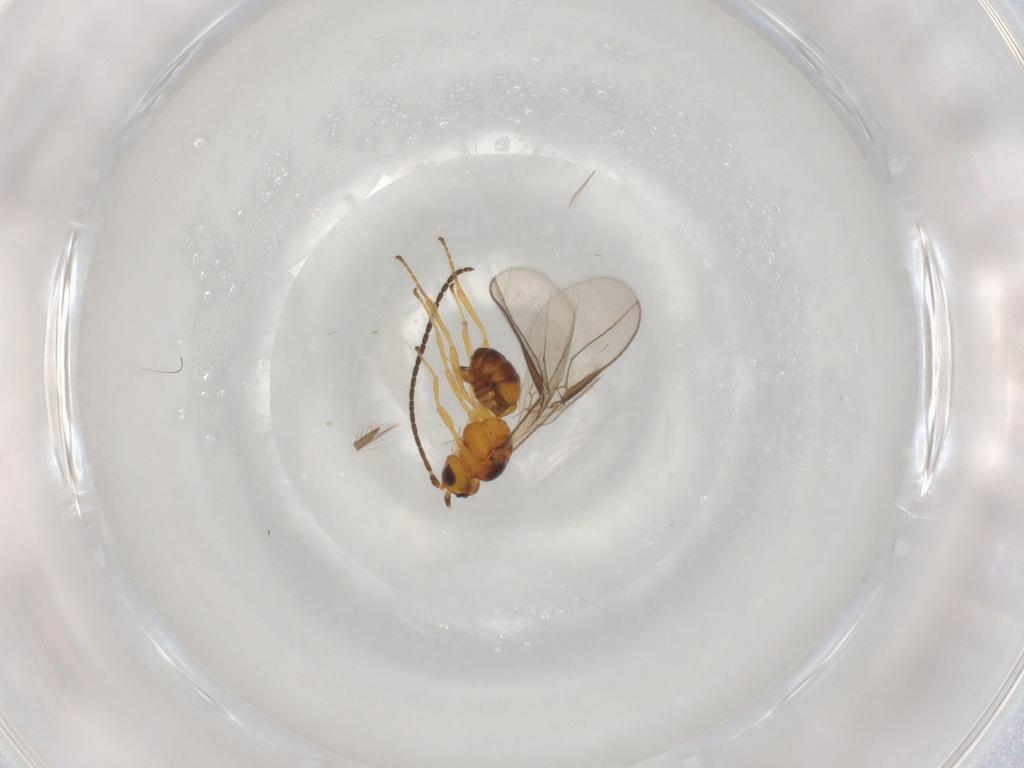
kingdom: Animalia
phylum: Arthropoda
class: Insecta
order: Hymenoptera
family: Braconidae
